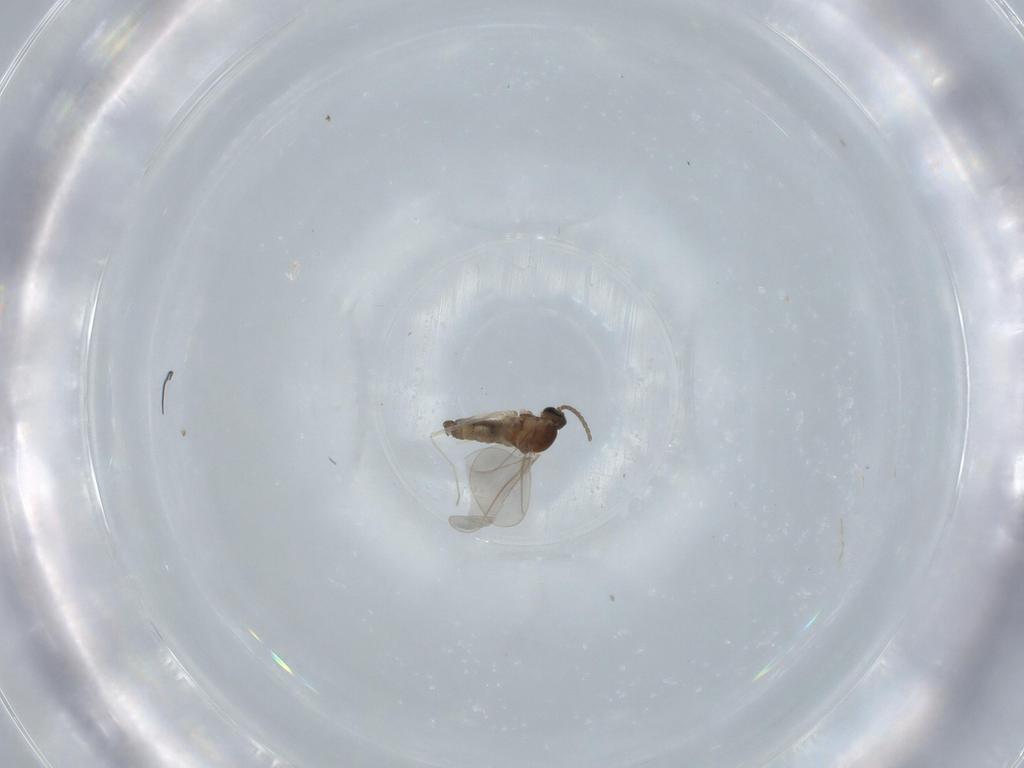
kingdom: Animalia
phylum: Arthropoda
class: Insecta
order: Diptera
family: Cecidomyiidae
